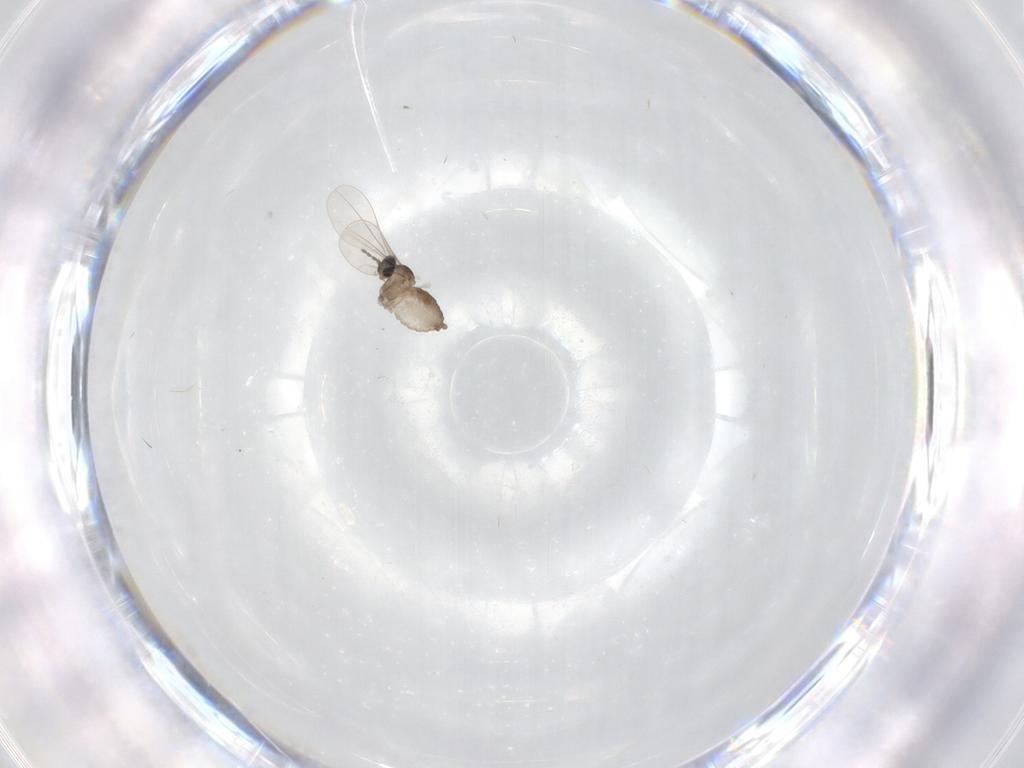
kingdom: Animalia
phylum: Arthropoda
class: Insecta
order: Diptera
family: Cecidomyiidae
